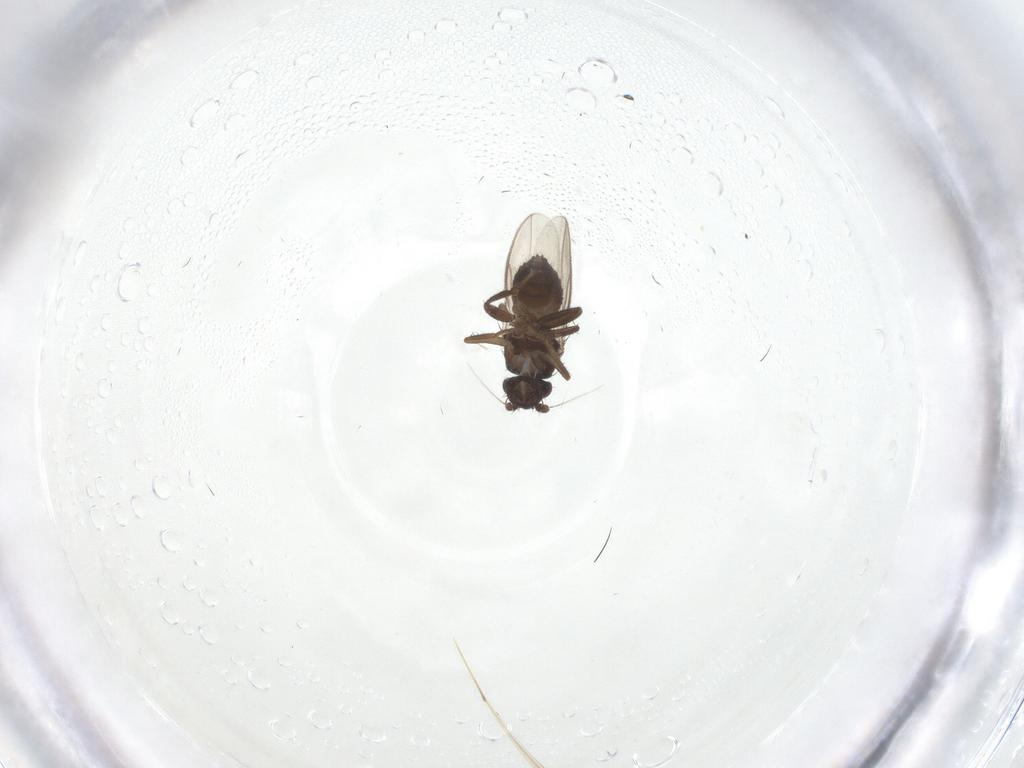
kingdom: Animalia
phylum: Arthropoda
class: Insecta
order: Diptera
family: Sphaeroceridae
